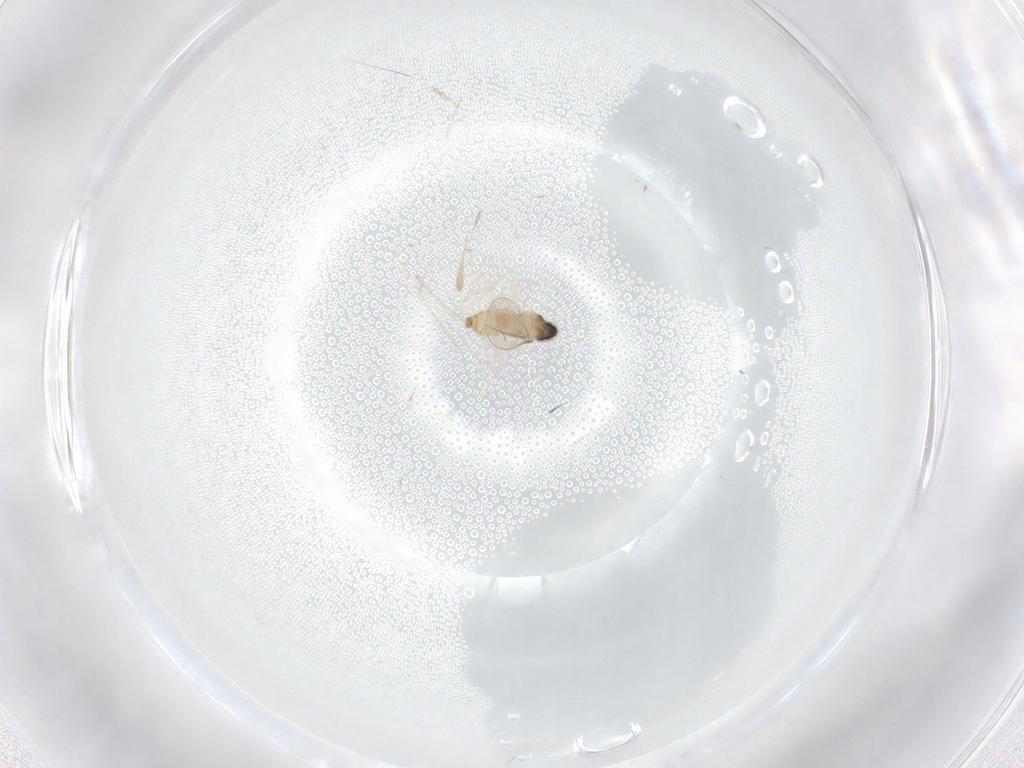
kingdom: Animalia
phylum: Arthropoda
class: Insecta
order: Diptera
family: Cecidomyiidae
